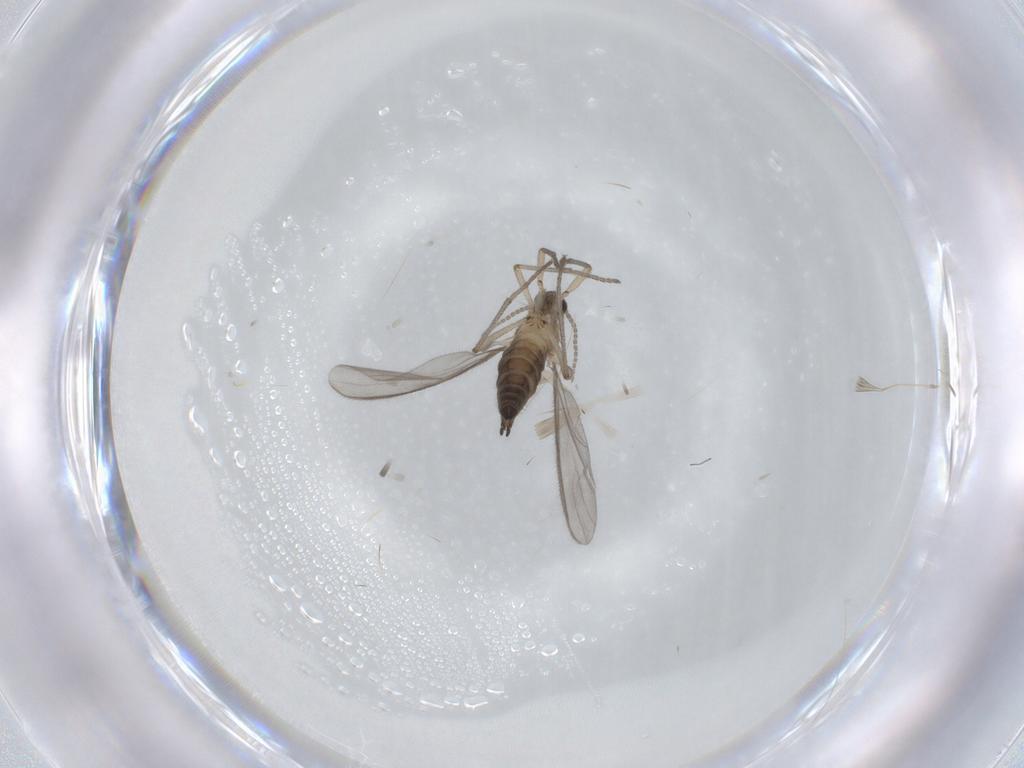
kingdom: Animalia
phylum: Arthropoda
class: Insecta
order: Diptera
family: Sciaridae
